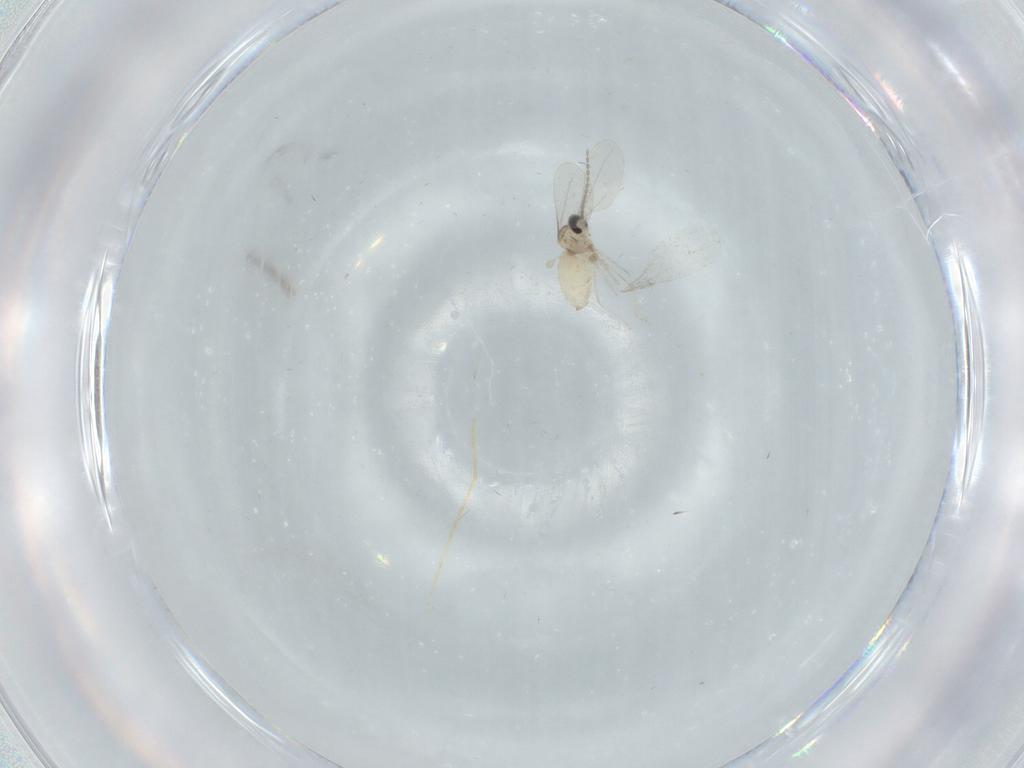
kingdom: Animalia
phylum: Arthropoda
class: Insecta
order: Diptera
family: Cecidomyiidae
